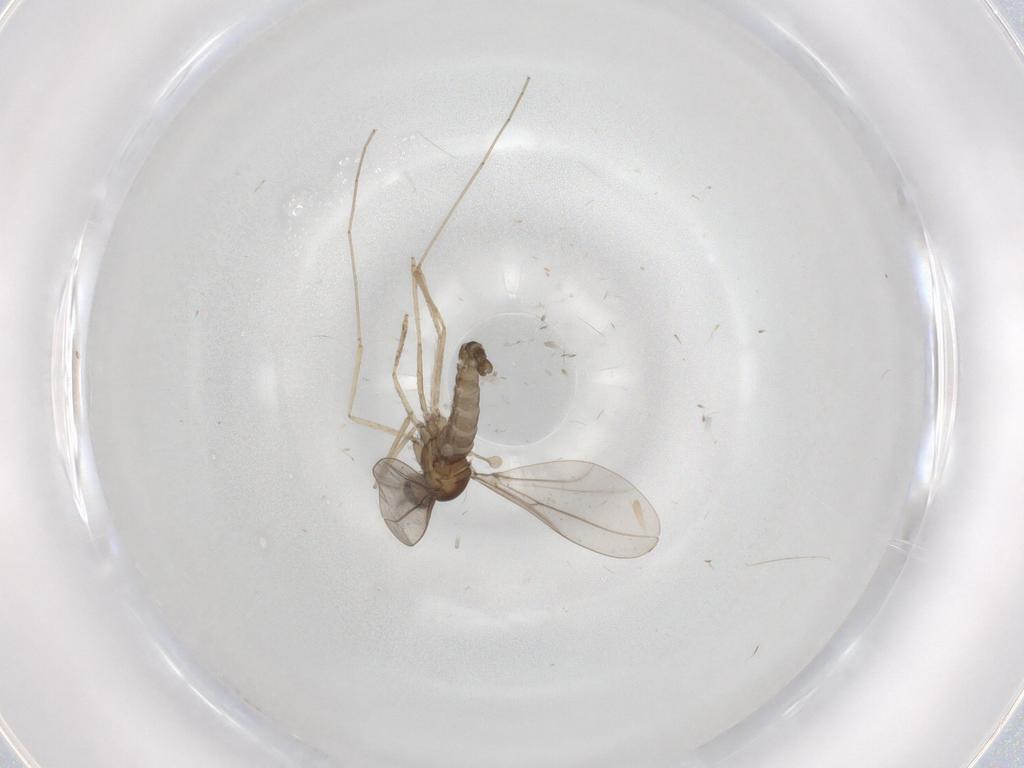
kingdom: Animalia
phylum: Arthropoda
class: Insecta
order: Diptera
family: Cecidomyiidae
